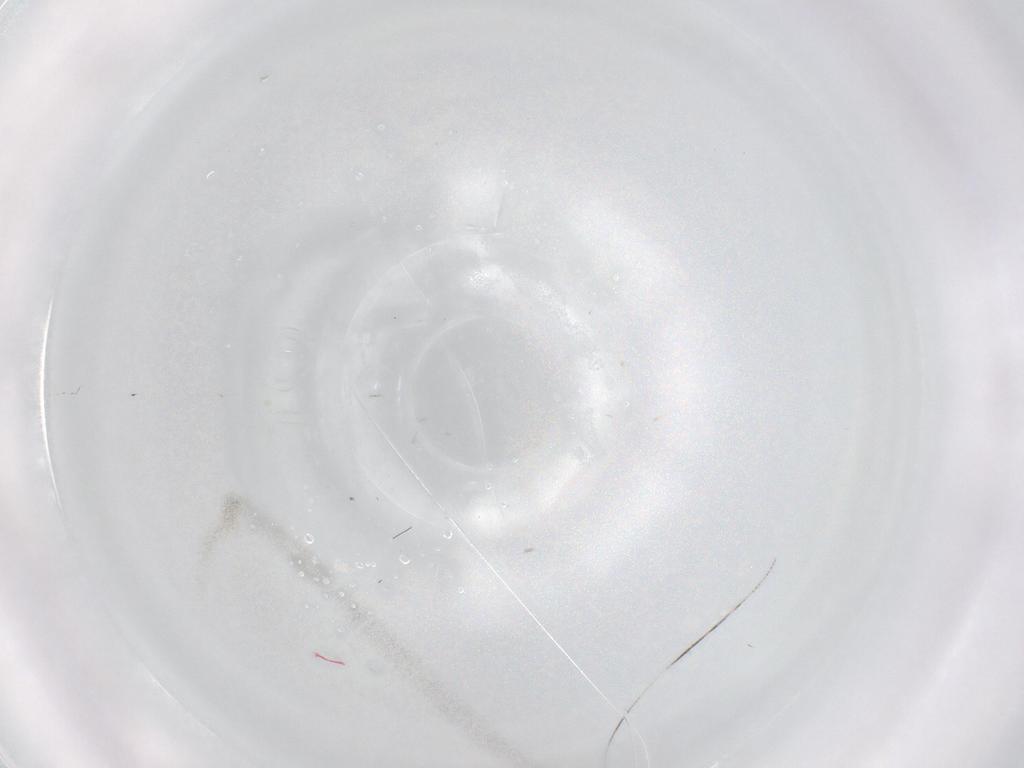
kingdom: Animalia
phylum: Arthropoda
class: Insecta
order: Diptera
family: Cecidomyiidae
